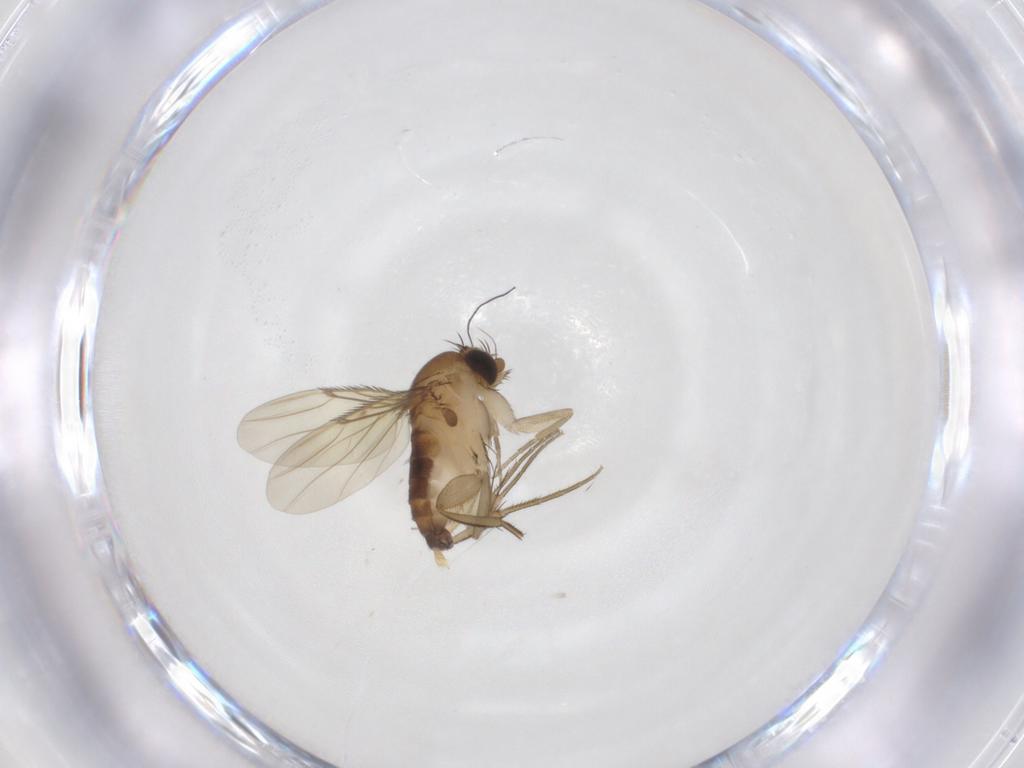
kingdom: Animalia
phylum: Arthropoda
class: Insecta
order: Diptera
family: Phoridae
